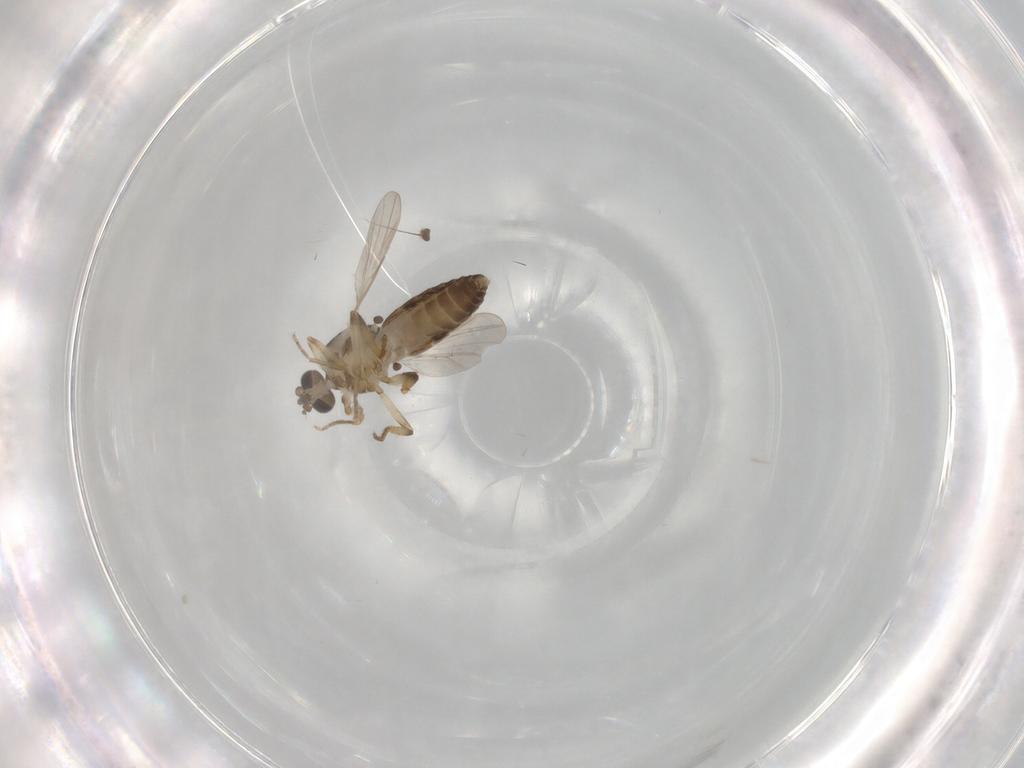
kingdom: Animalia
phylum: Arthropoda
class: Insecta
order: Diptera
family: Ceratopogonidae
